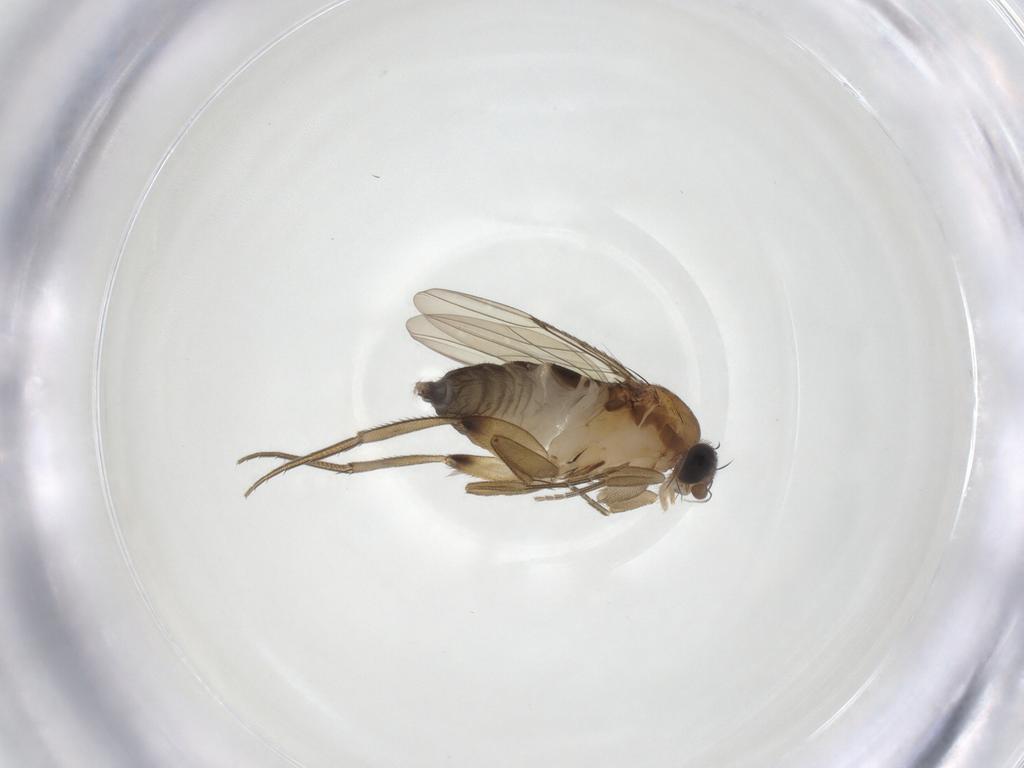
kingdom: Animalia
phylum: Arthropoda
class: Insecta
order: Diptera
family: Phoridae
